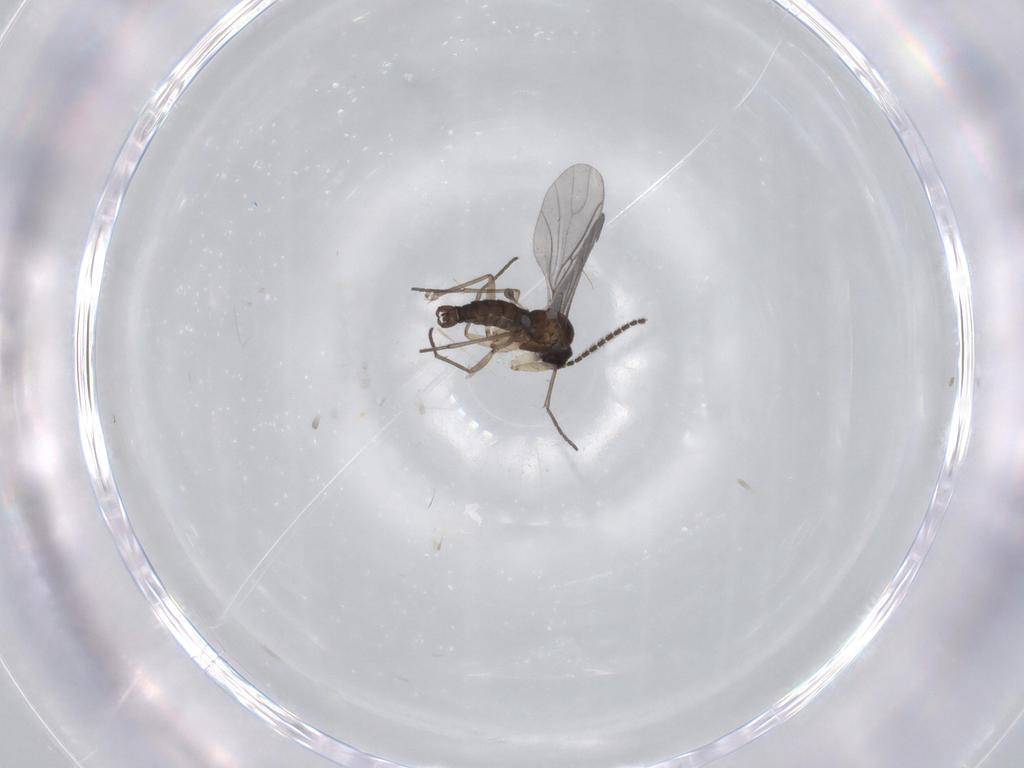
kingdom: Animalia
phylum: Arthropoda
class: Insecta
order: Diptera
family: Sciaridae
